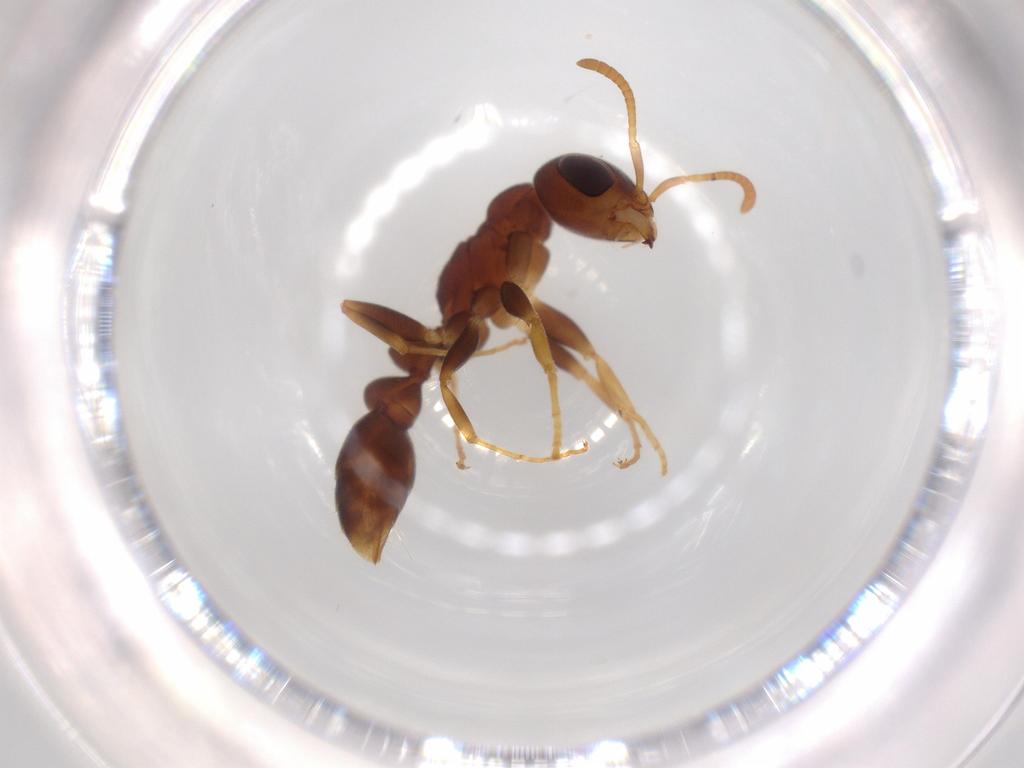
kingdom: Animalia
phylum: Arthropoda
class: Insecta
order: Hymenoptera
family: Formicidae
